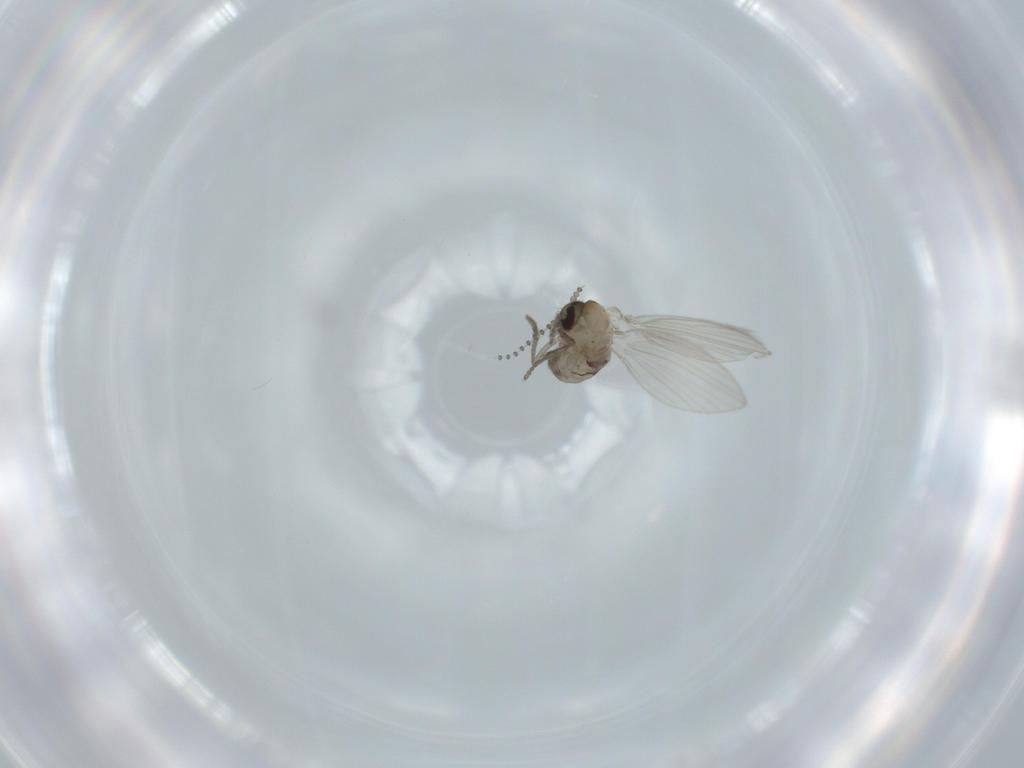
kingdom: Animalia
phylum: Arthropoda
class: Insecta
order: Diptera
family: Psychodidae
